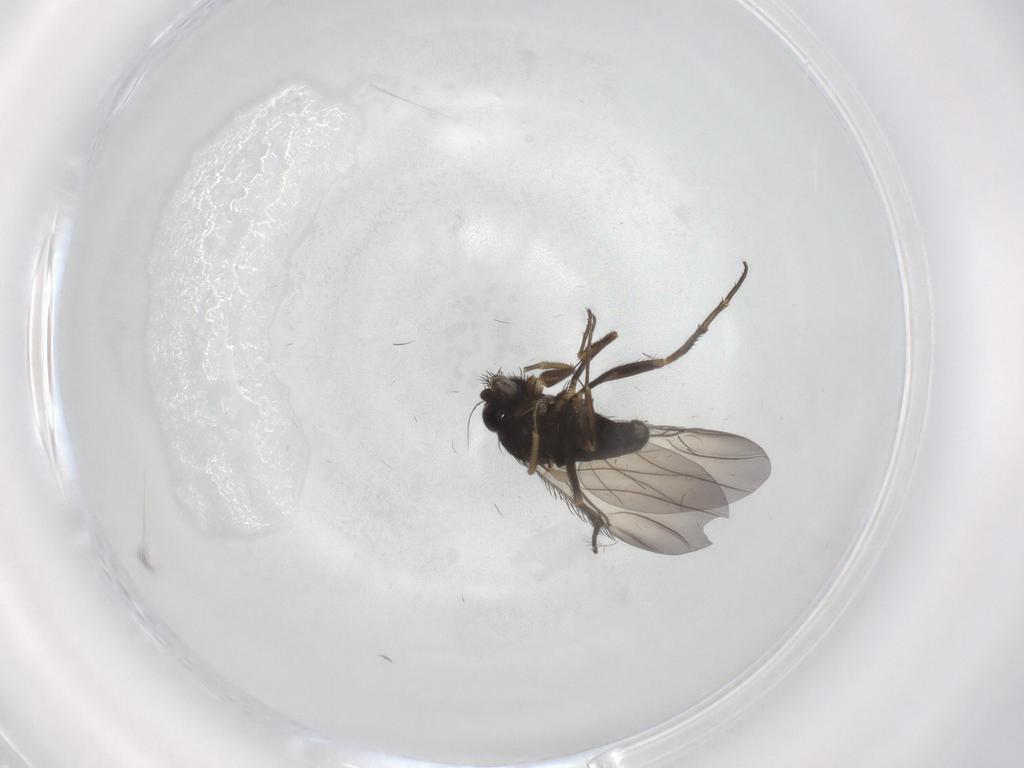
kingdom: Animalia
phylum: Arthropoda
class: Insecta
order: Diptera
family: Phoridae
